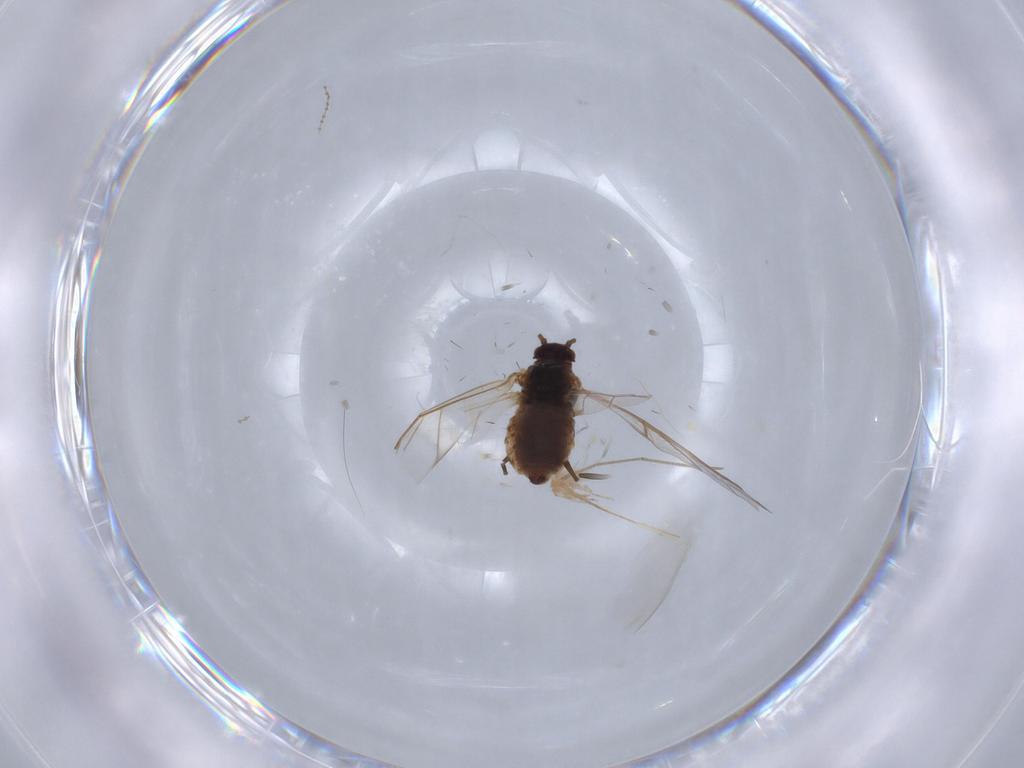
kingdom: Animalia
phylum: Arthropoda
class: Insecta
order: Hemiptera
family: Aphididae
